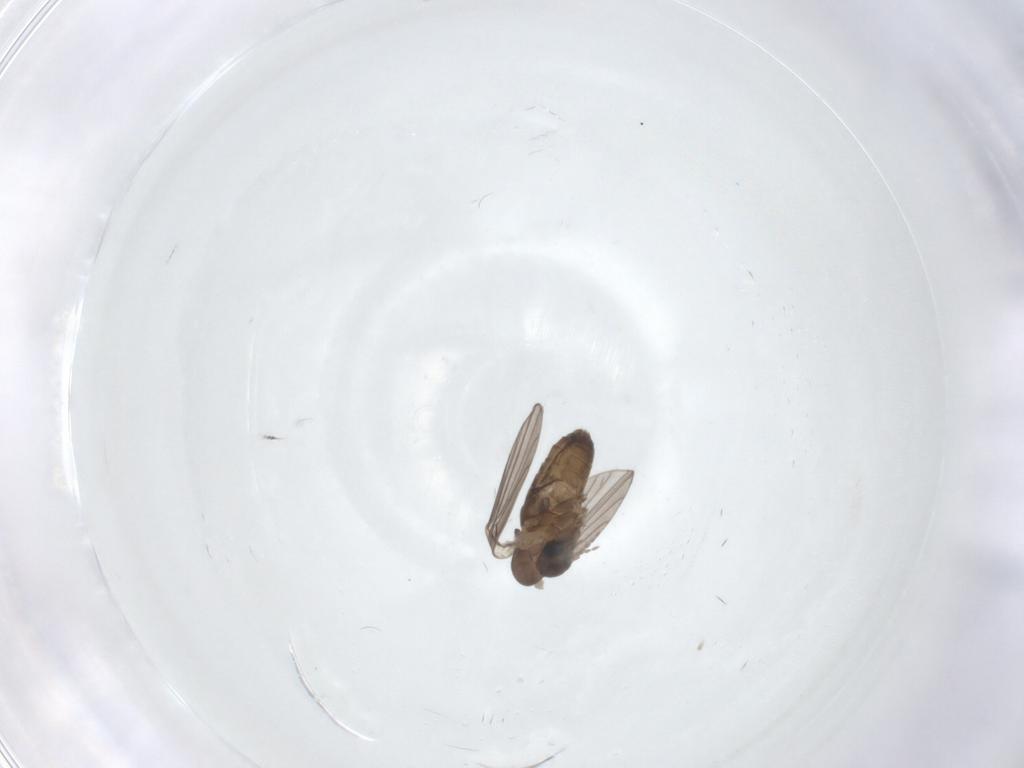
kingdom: Animalia
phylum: Arthropoda
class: Insecta
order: Diptera
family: Psychodidae
